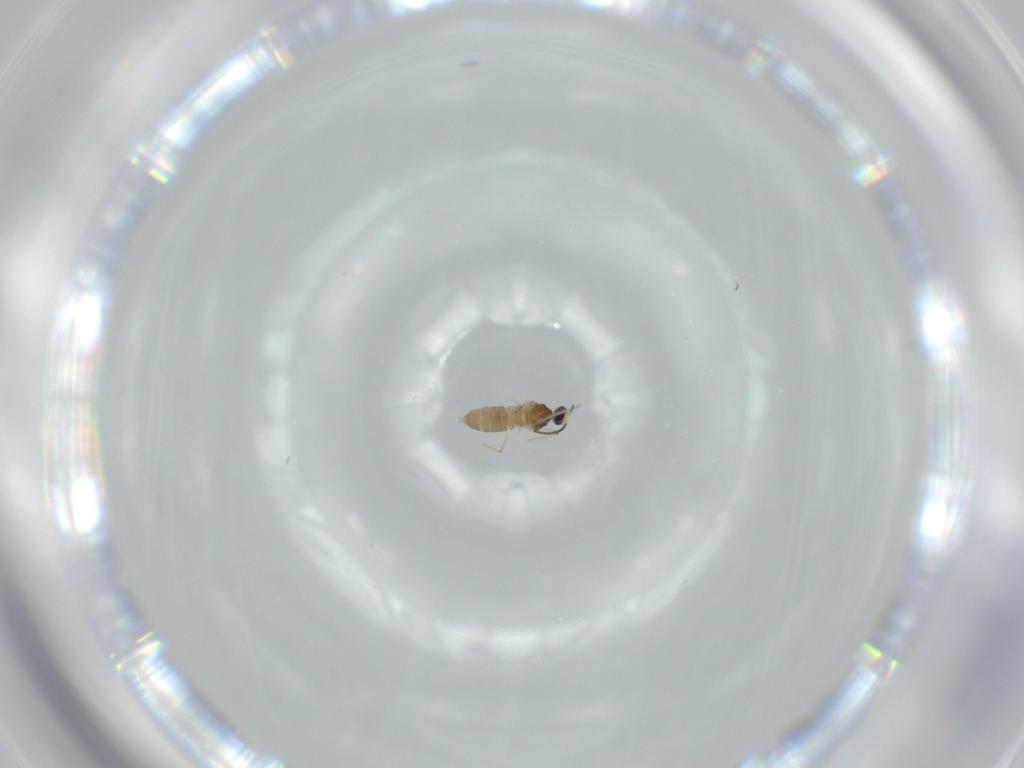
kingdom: Animalia
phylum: Arthropoda
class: Insecta
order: Diptera
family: Cecidomyiidae
